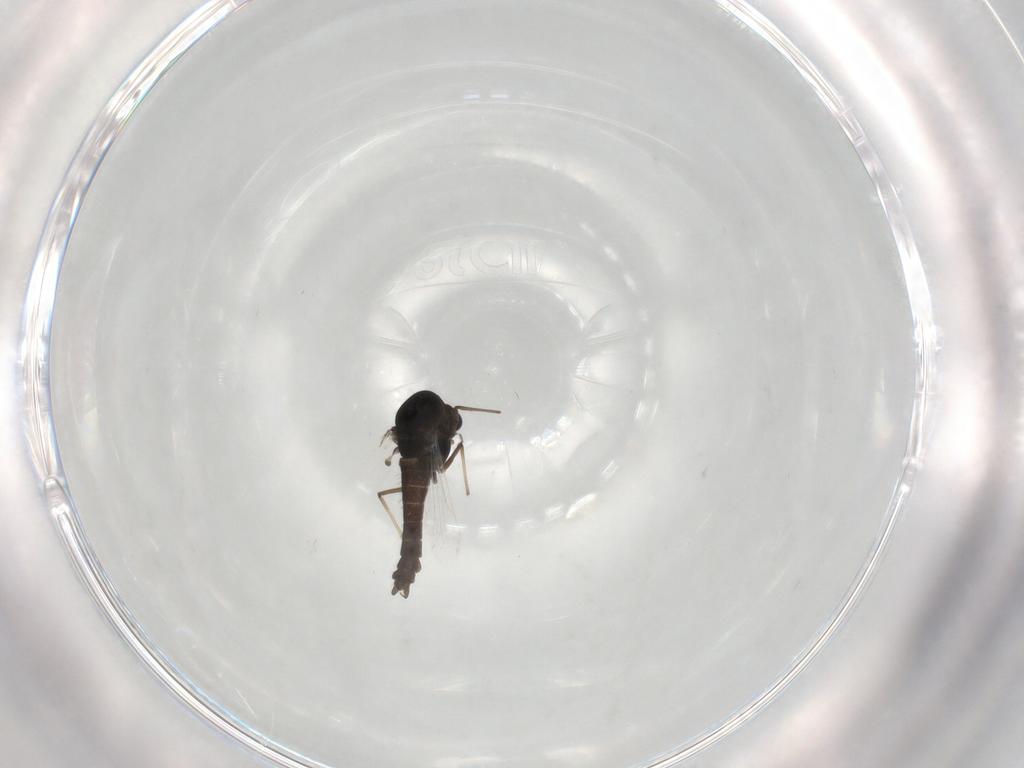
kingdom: Animalia
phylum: Arthropoda
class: Insecta
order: Diptera
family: Chironomidae
